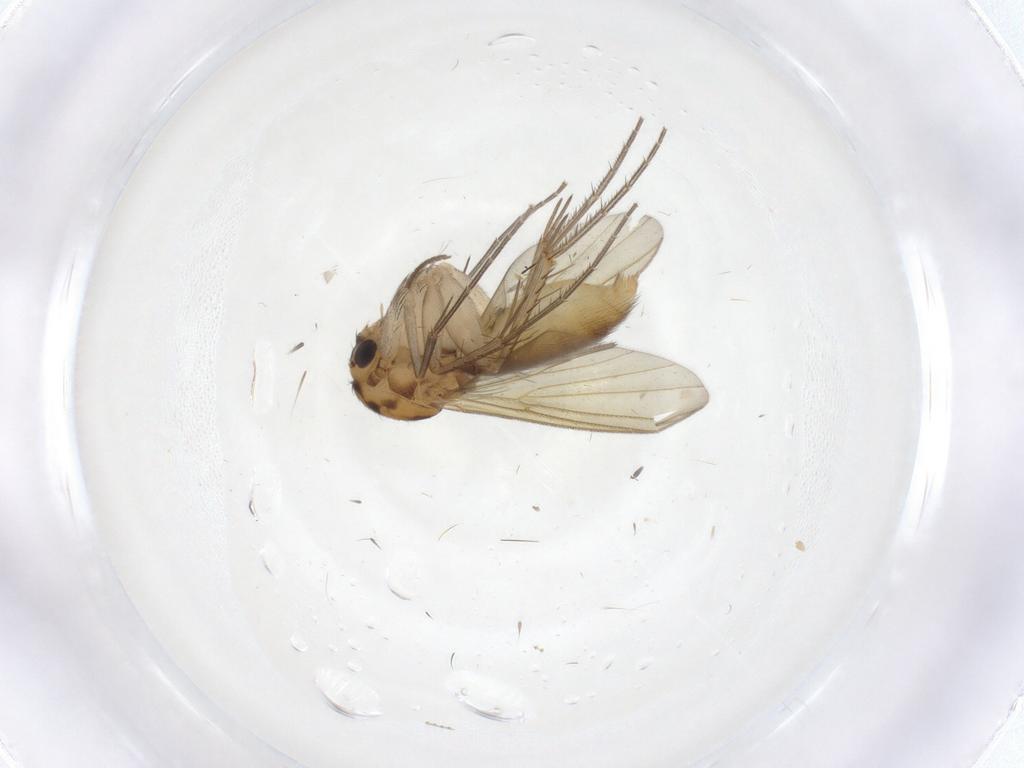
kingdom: Animalia
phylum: Arthropoda
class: Insecta
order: Diptera
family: Mycetophilidae
